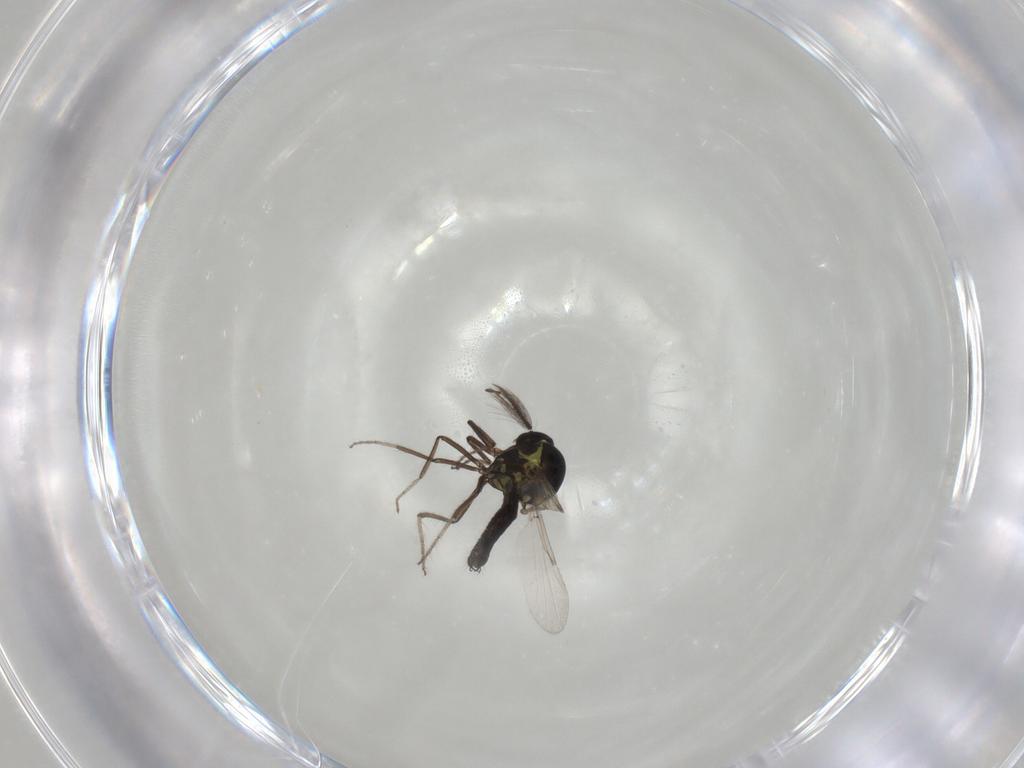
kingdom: Animalia
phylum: Arthropoda
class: Insecta
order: Diptera
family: Ceratopogonidae
